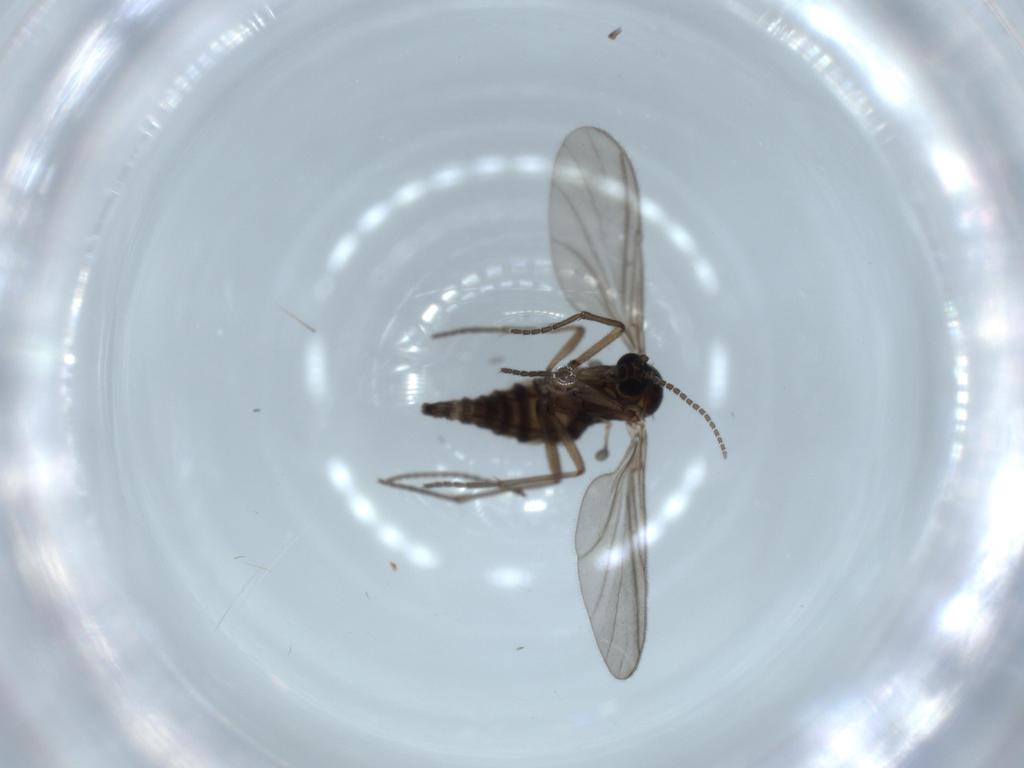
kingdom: Animalia
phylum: Arthropoda
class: Insecta
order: Diptera
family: Sciaridae
